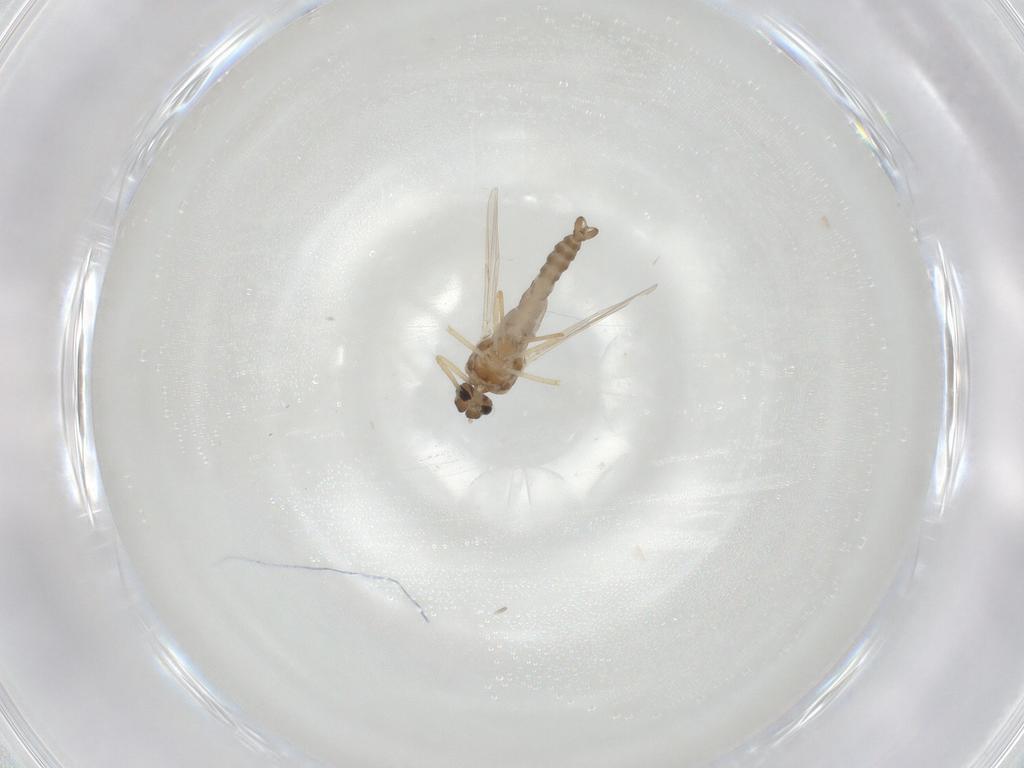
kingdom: Animalia
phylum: Arthropoda
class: Insecta
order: Diptera
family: Ceratopogonidae
